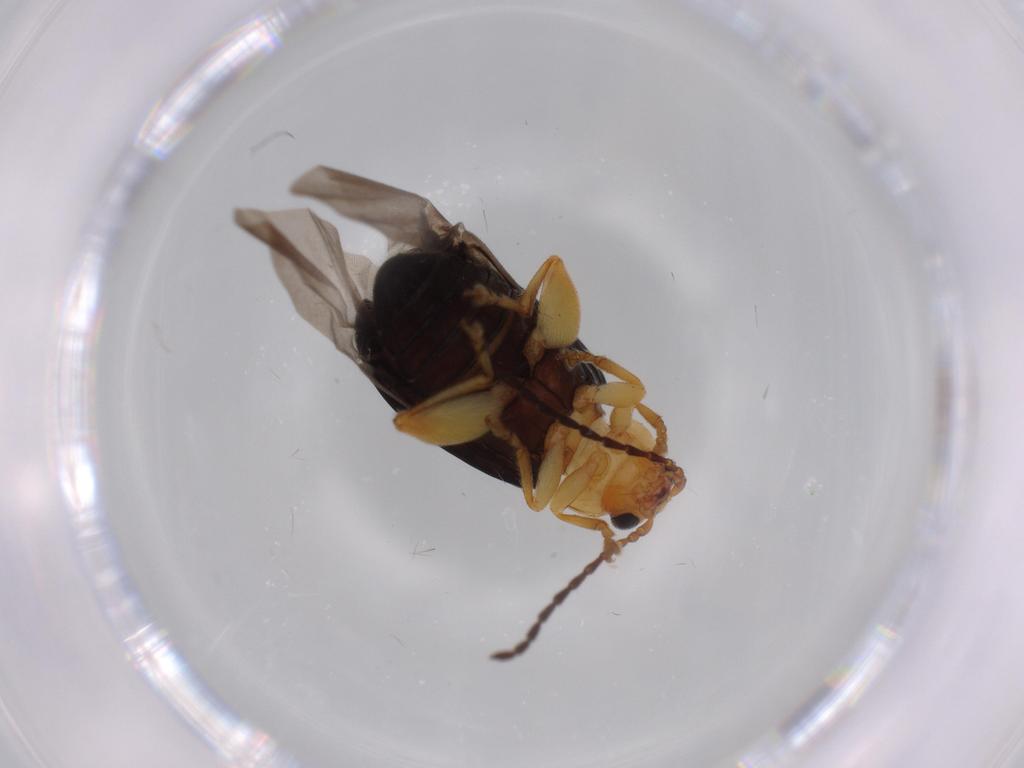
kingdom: Animalia
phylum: Arthropoda
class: Insecta
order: Coleoptera
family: Chrysomelidae
